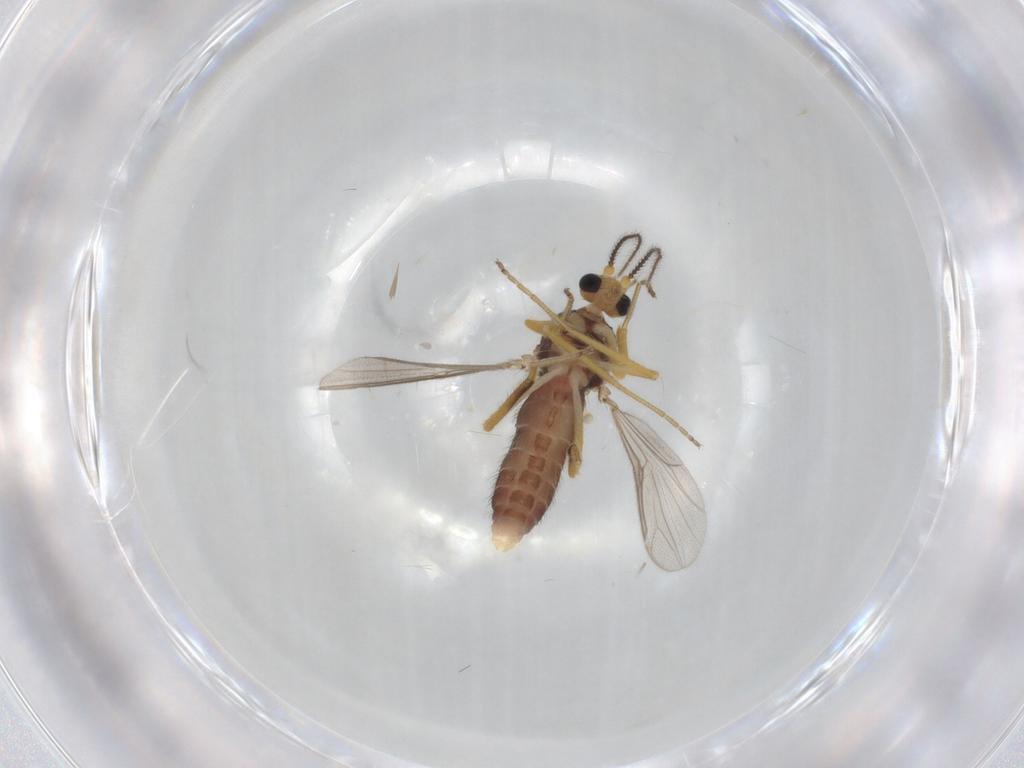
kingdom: Animalia
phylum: Arthropoda
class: Insecta
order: Diptera
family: Ceratopogonidae
